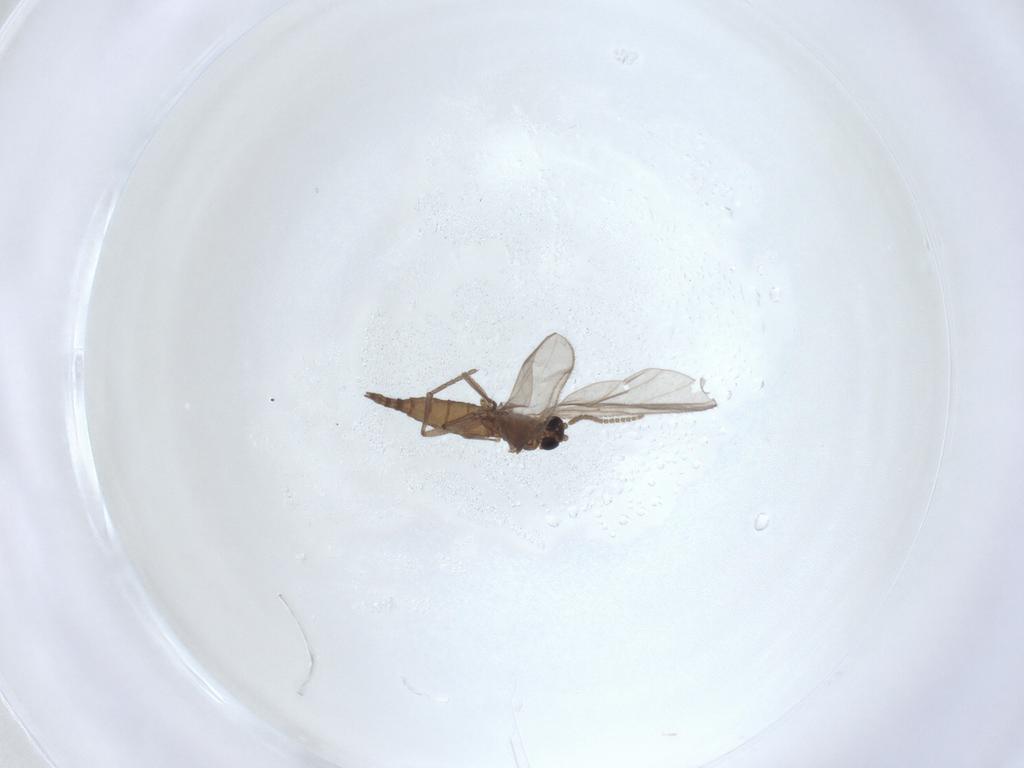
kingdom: Animalia
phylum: Arthropoda
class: Insecta
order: Diptera
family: Sciaridae
